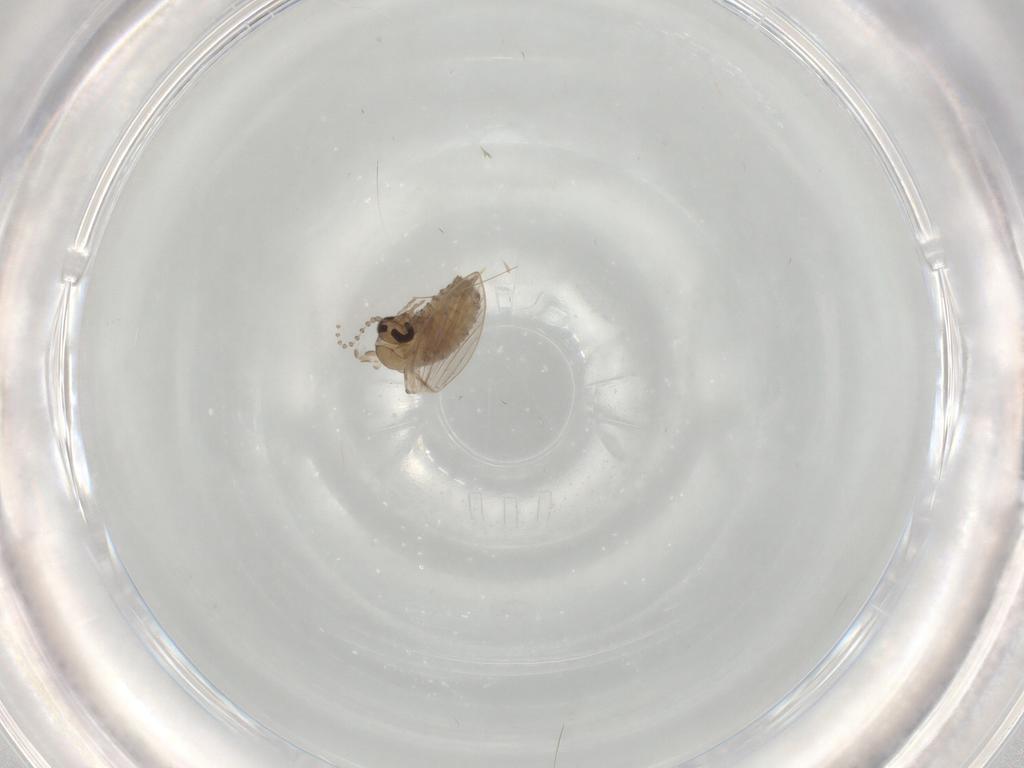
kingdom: Animalia
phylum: Arthropoda
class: Insecta
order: Diptera
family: Psychodidae
